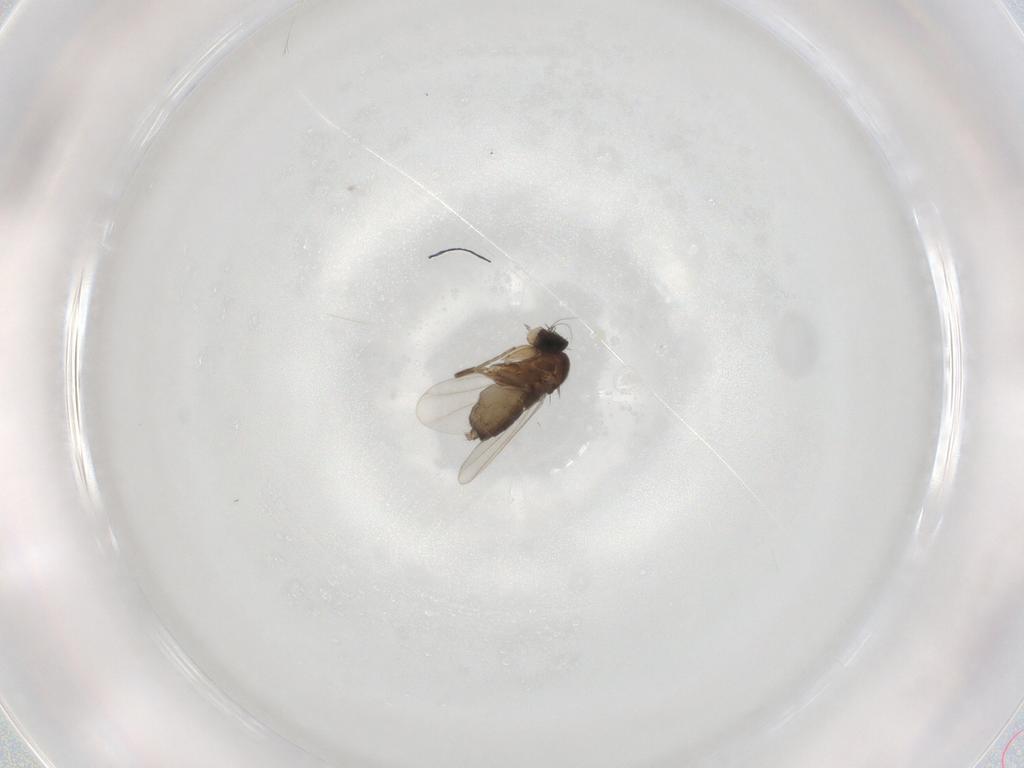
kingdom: Animalia
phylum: Arthropoda
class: Insecta
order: Diptera
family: Phoridae
